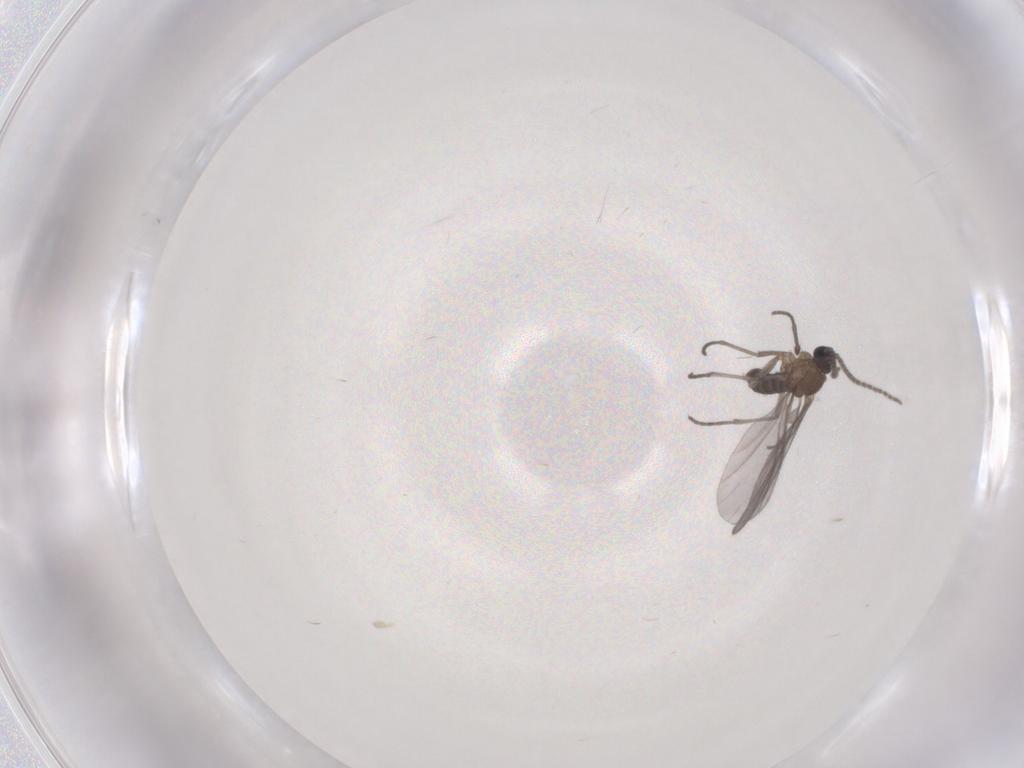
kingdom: Animalia
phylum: Arthropoda
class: Insecta
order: Diptera
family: Sciaridae
